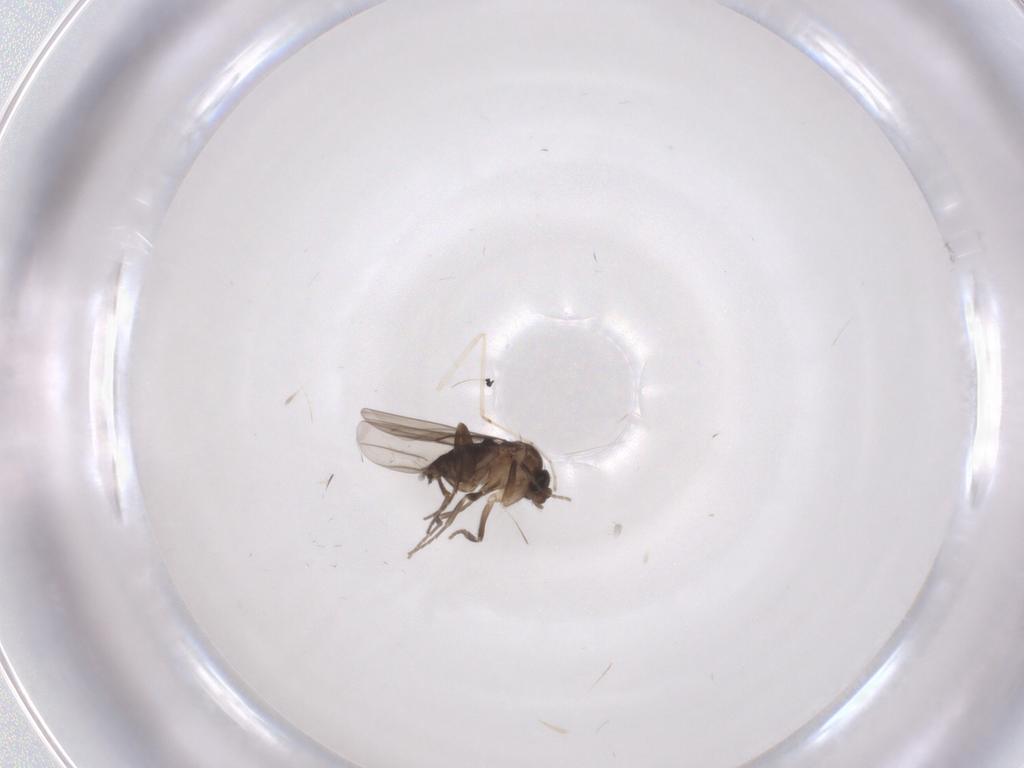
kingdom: Animalia
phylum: Arthropoda
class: Insecta
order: Diptera
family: Phoridae
